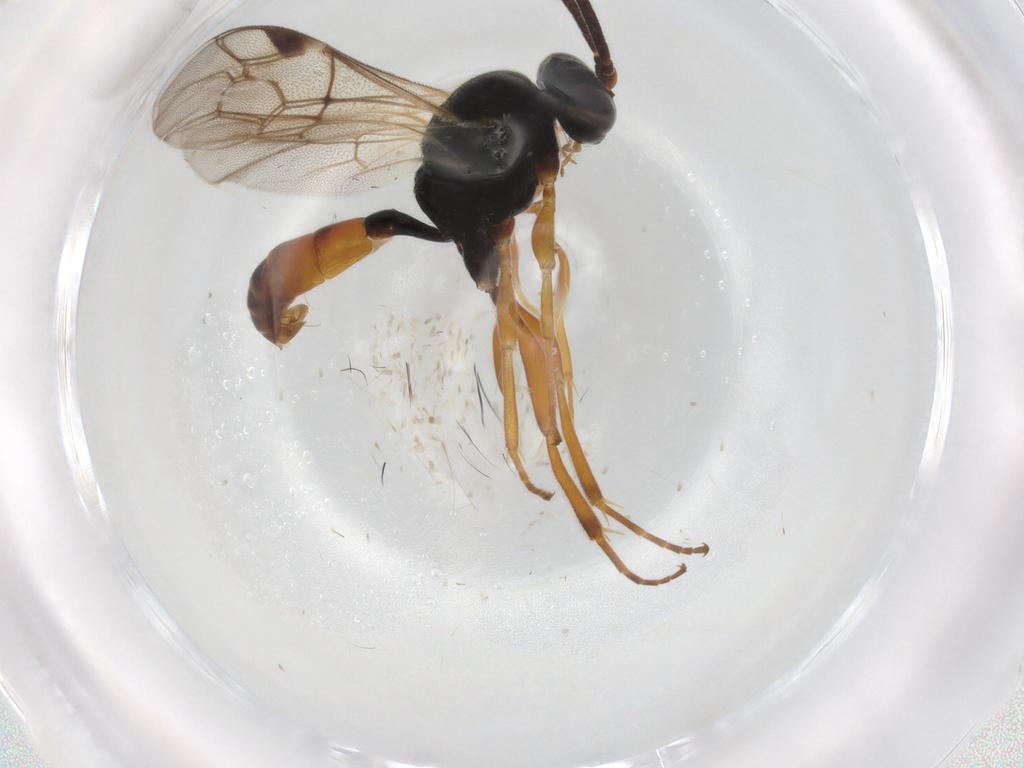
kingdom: Animalia
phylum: Arthropoda
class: Insecta
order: Hymenoptera
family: Ichneumonidae
